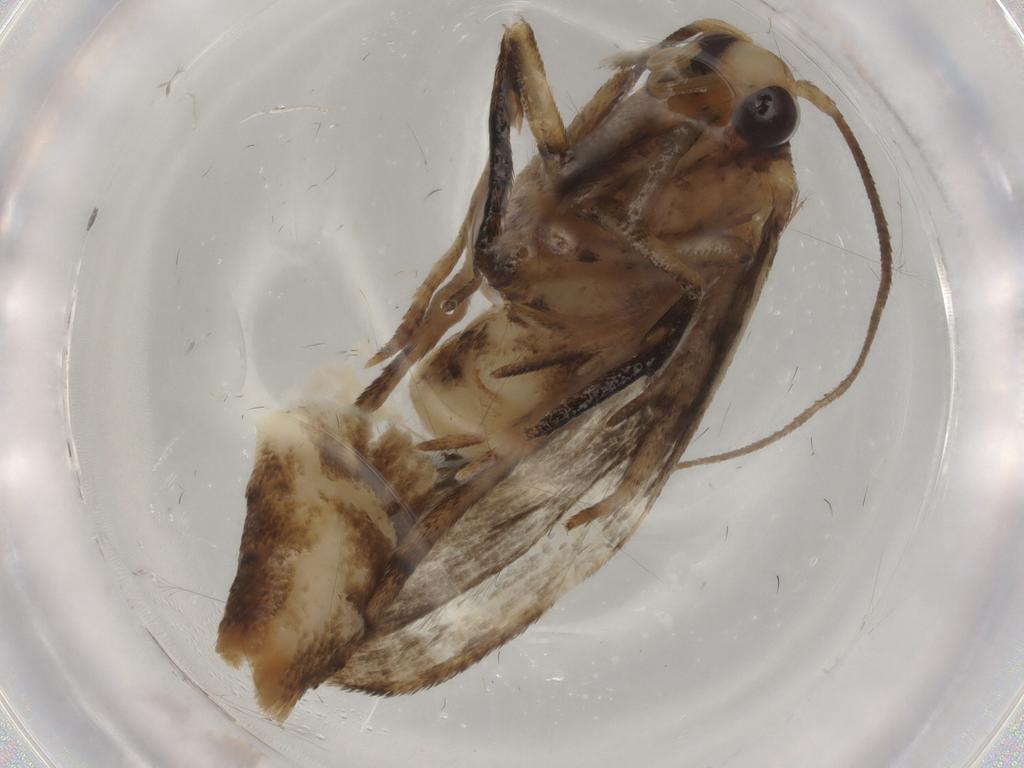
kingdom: Animalia
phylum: Arthropoda
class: Insecta
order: Lepidoptera
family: Yponomeutidae
